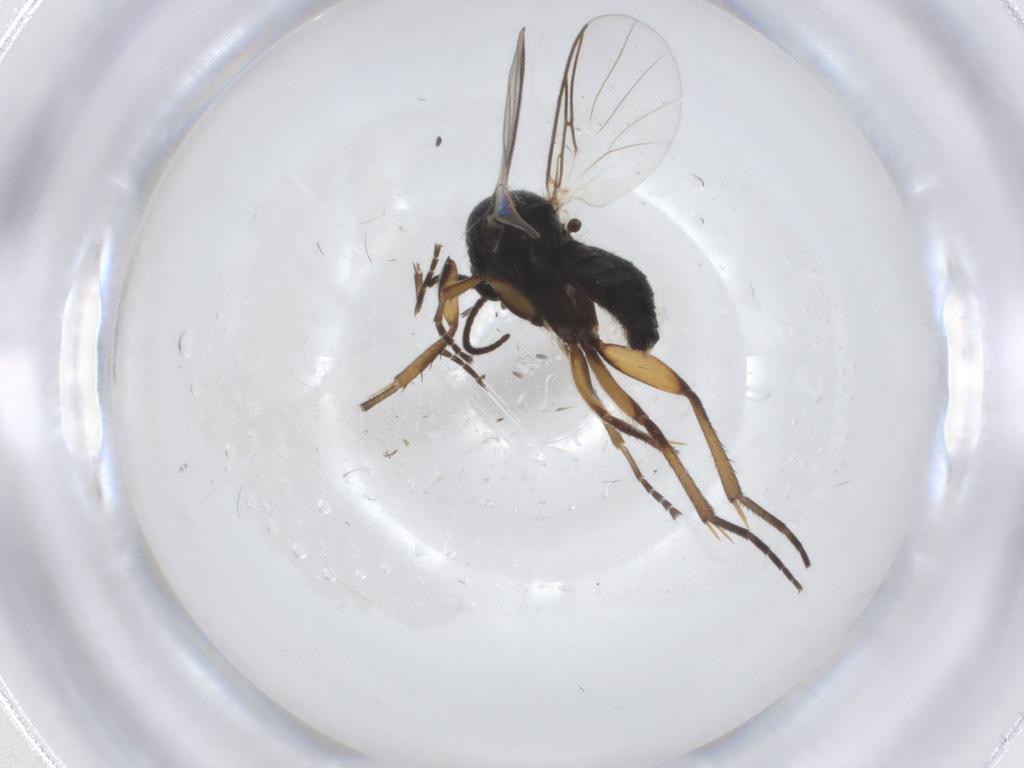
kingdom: Animalia
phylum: Arthropoda
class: Insecta
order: Diptera
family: Mycetophilidae
